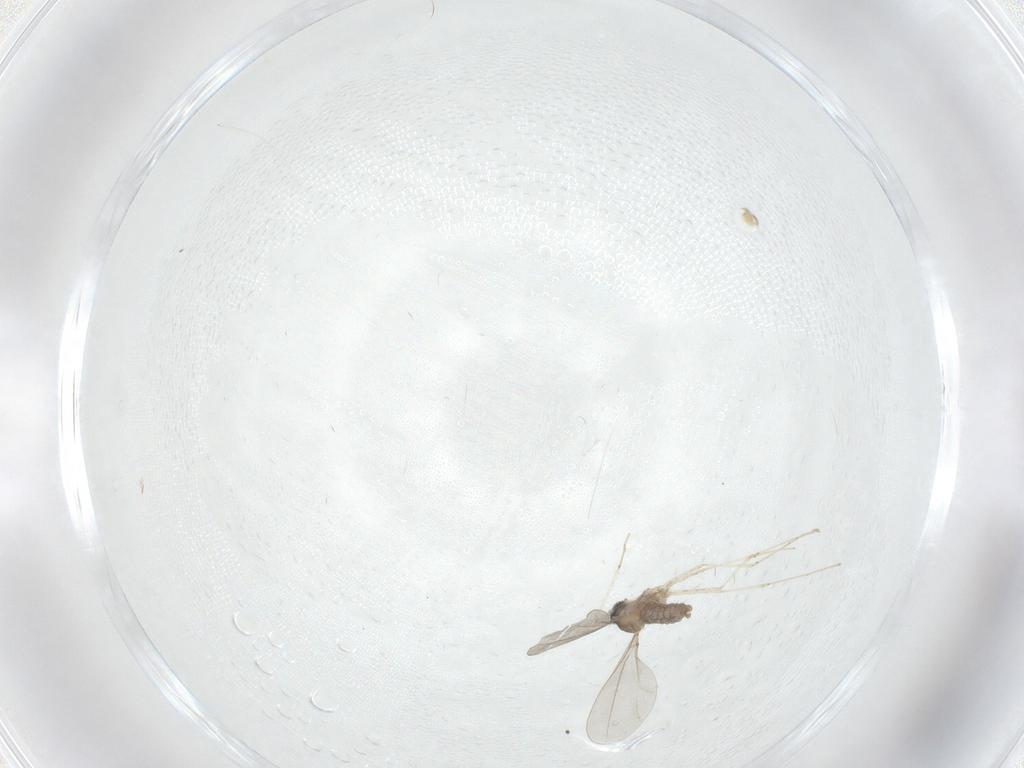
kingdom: Animalia
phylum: Arthropoda
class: Insecta
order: Diptera
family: Cecidomyiidae
